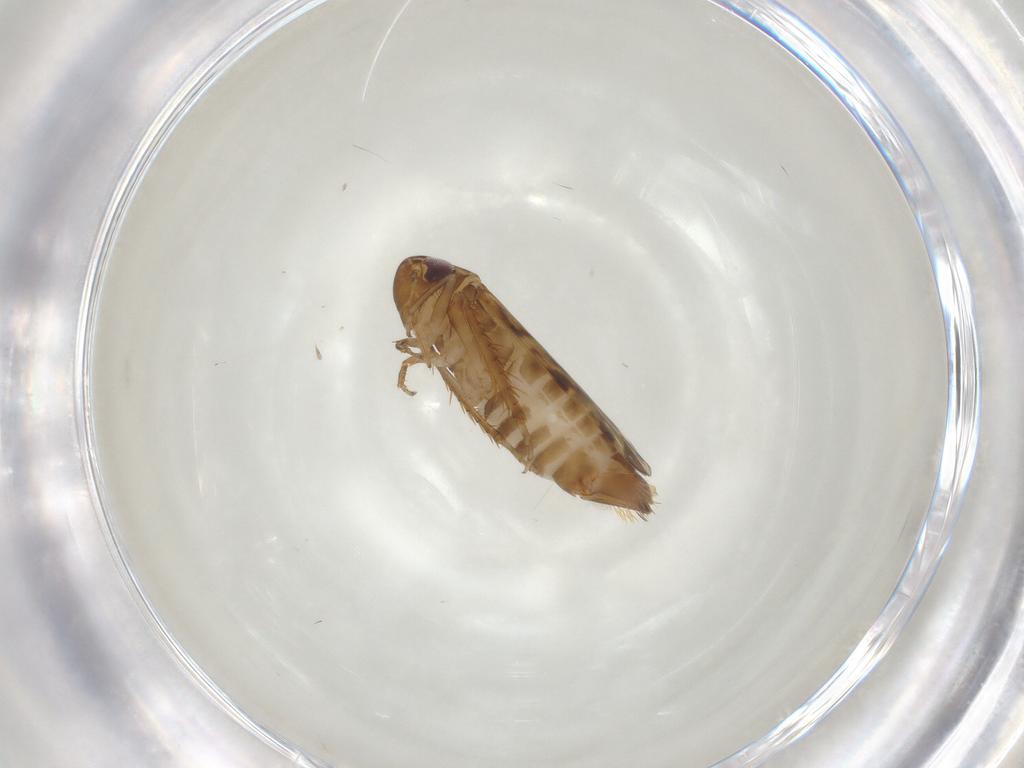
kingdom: Animalia
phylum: Arthropoda
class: Insecta
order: Hemiptera
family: Cicadellidae
